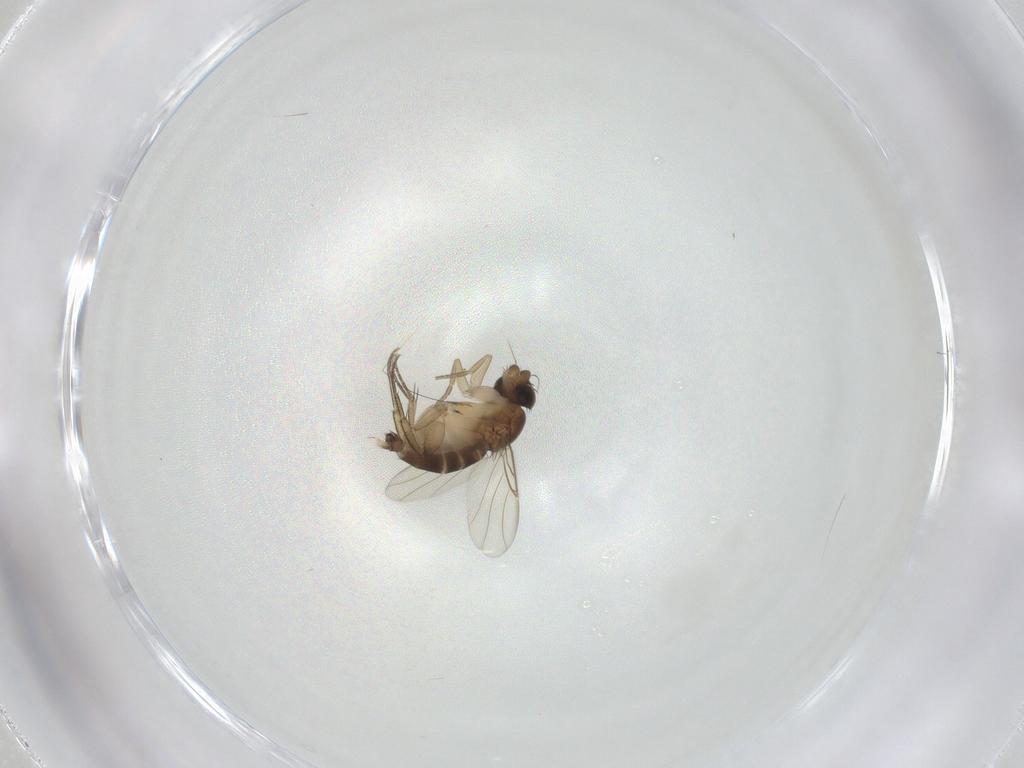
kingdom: Animalia
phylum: Arthropoda
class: Insecta
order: Diptera
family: Phoridae
